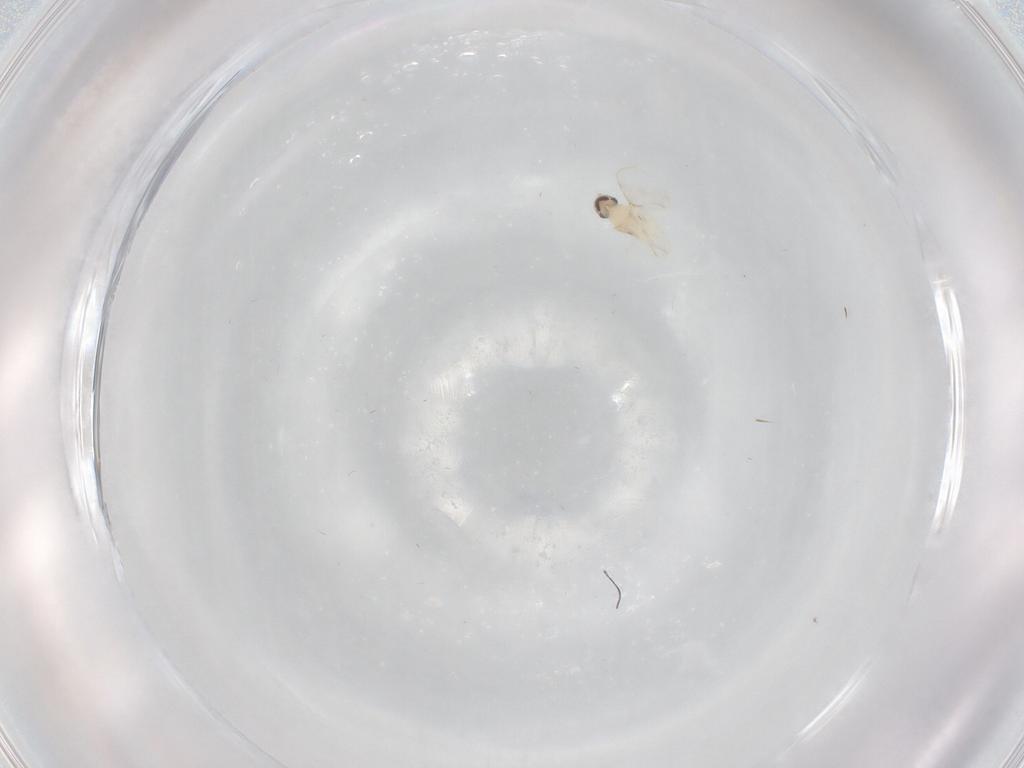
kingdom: Animalia
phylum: Arthropoda
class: Insecta
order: Diptera
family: Cecidomyiidae
